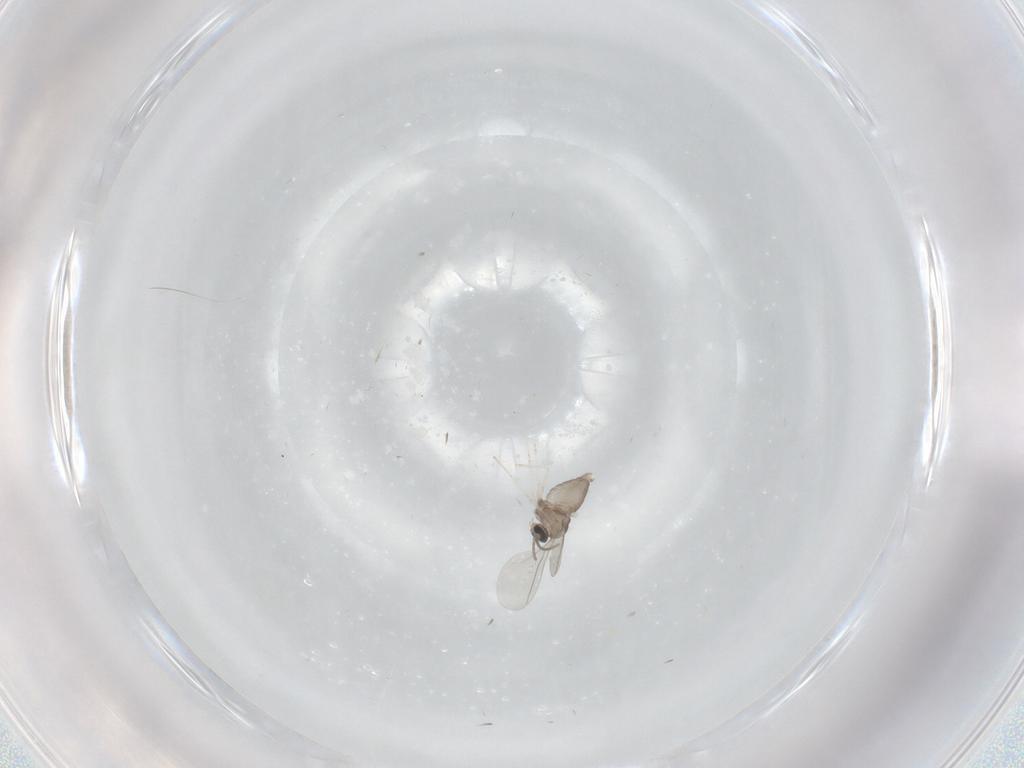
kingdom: Animalia
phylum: Arthropoda
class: Insecta
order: Diptera
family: Cecidomyiidae
